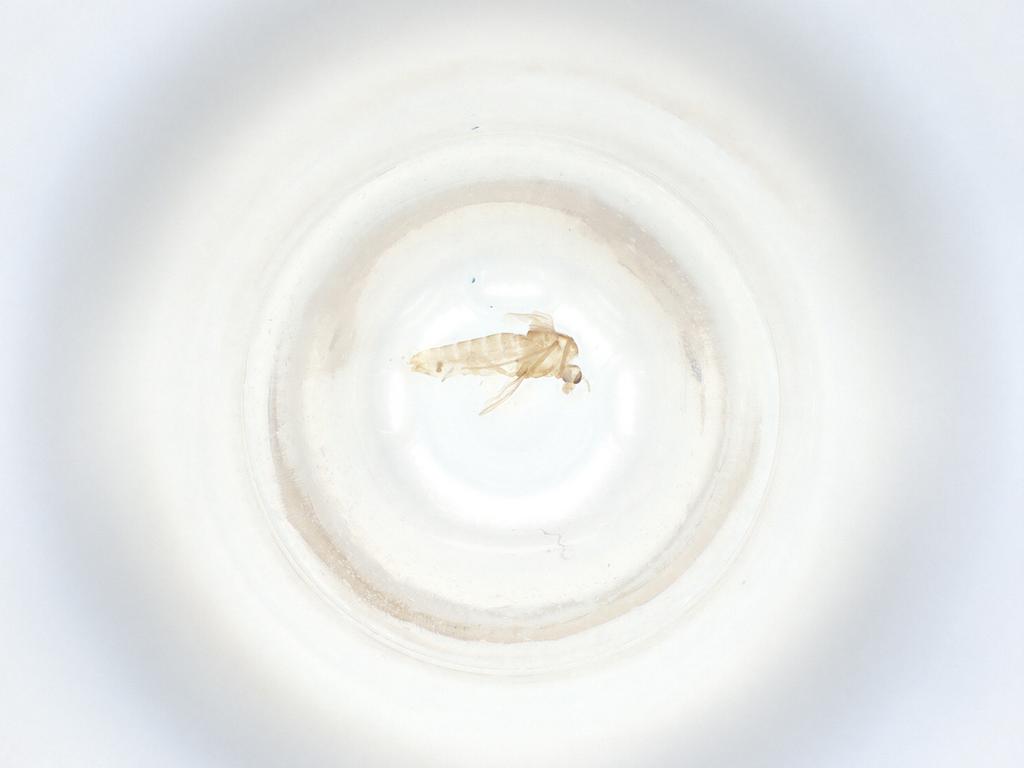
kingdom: Animalia
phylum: Arthropoda
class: Insecta
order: Diptera
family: Chironomidae
